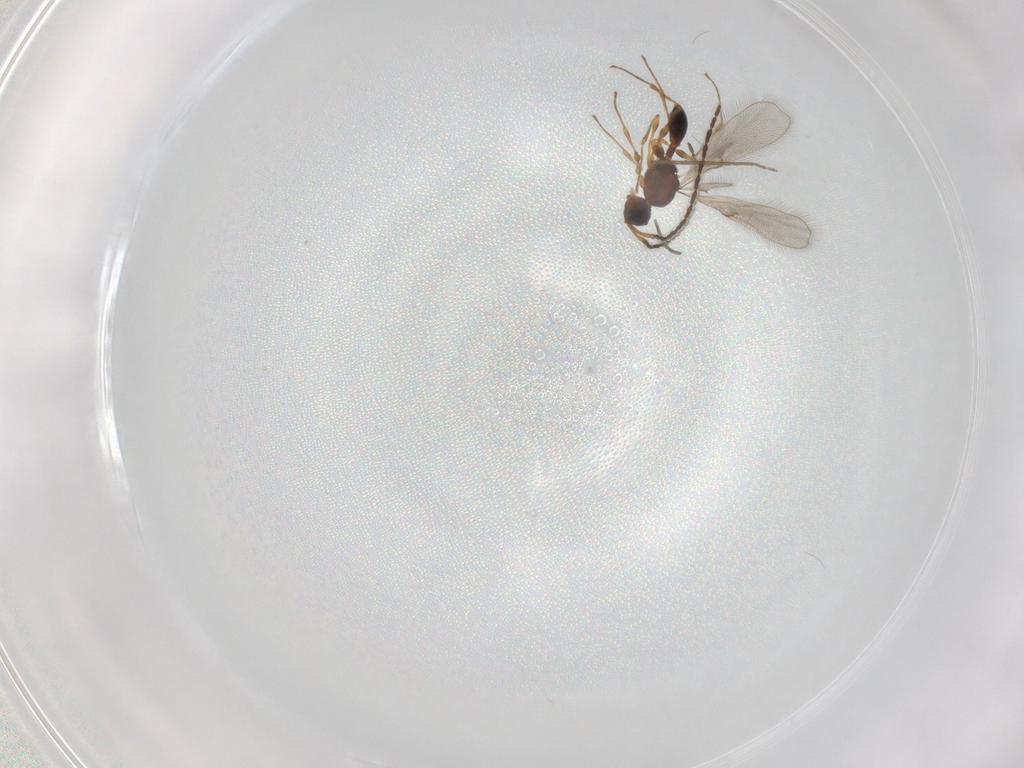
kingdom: Animalia
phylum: Arthropoda
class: Insecta
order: Hymenoptera
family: Diapriidae
